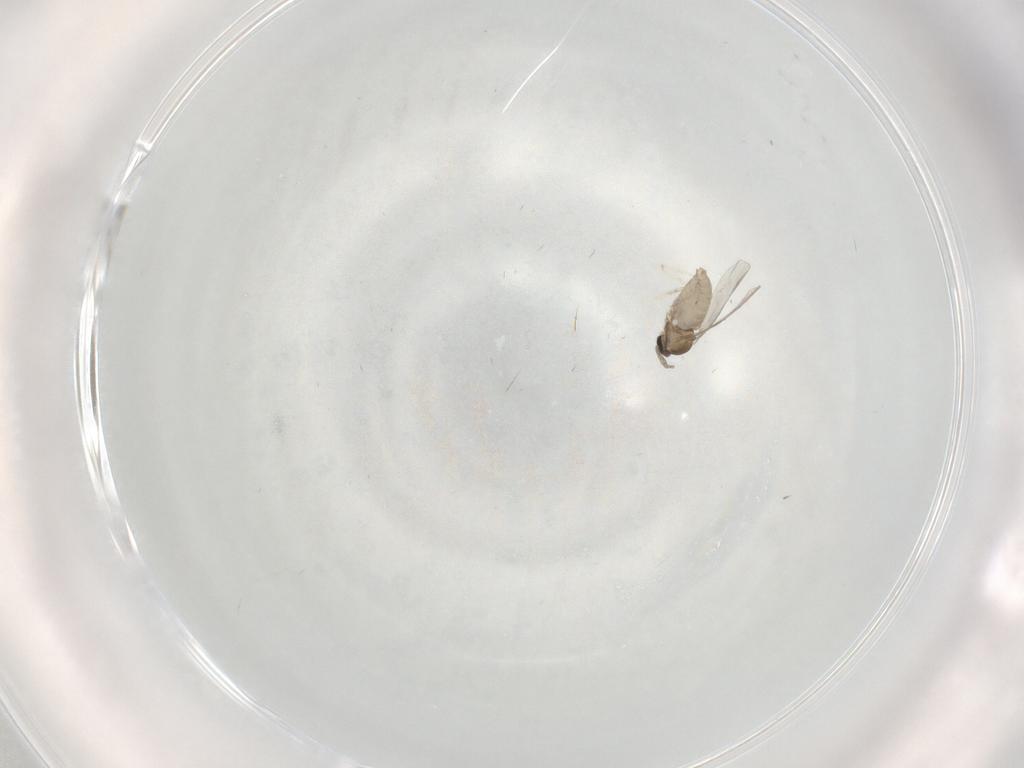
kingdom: Animalia
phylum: Arthropoda
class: Insecta
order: Diptera
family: Cecidomyiidae
